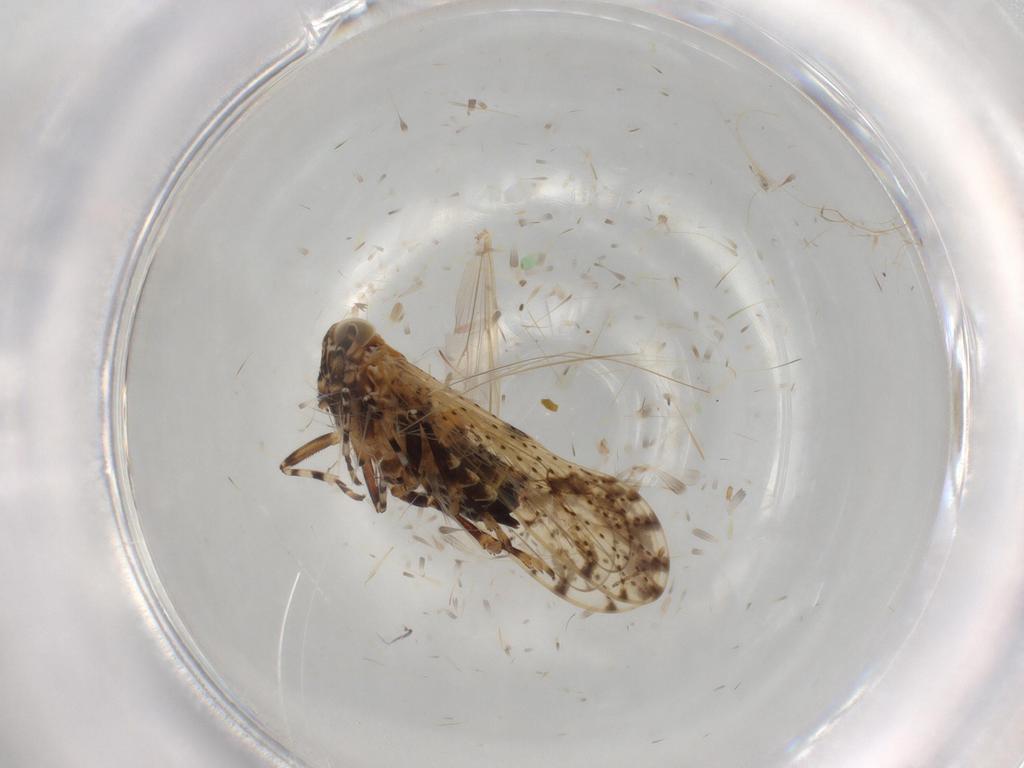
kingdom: Animalia
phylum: Arthropoda
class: Insecta
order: Hemiptera
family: Delphacidae
